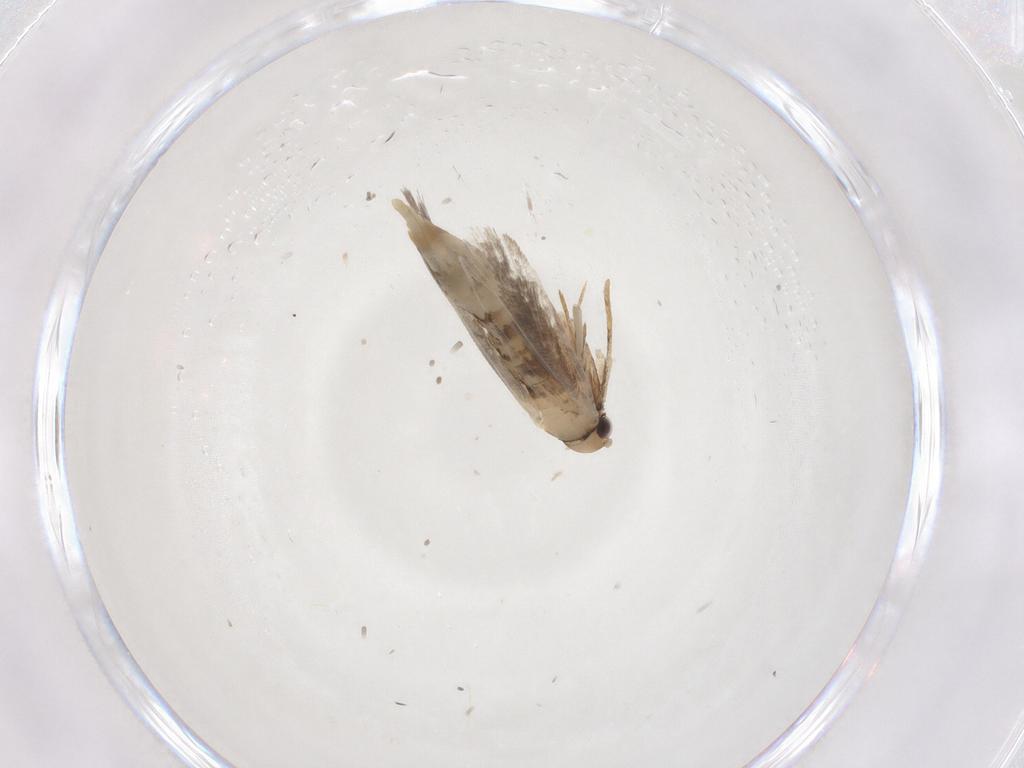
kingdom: Animalia
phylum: Arthropoda
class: Insecta
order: Lepidoptera
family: Tineidae
